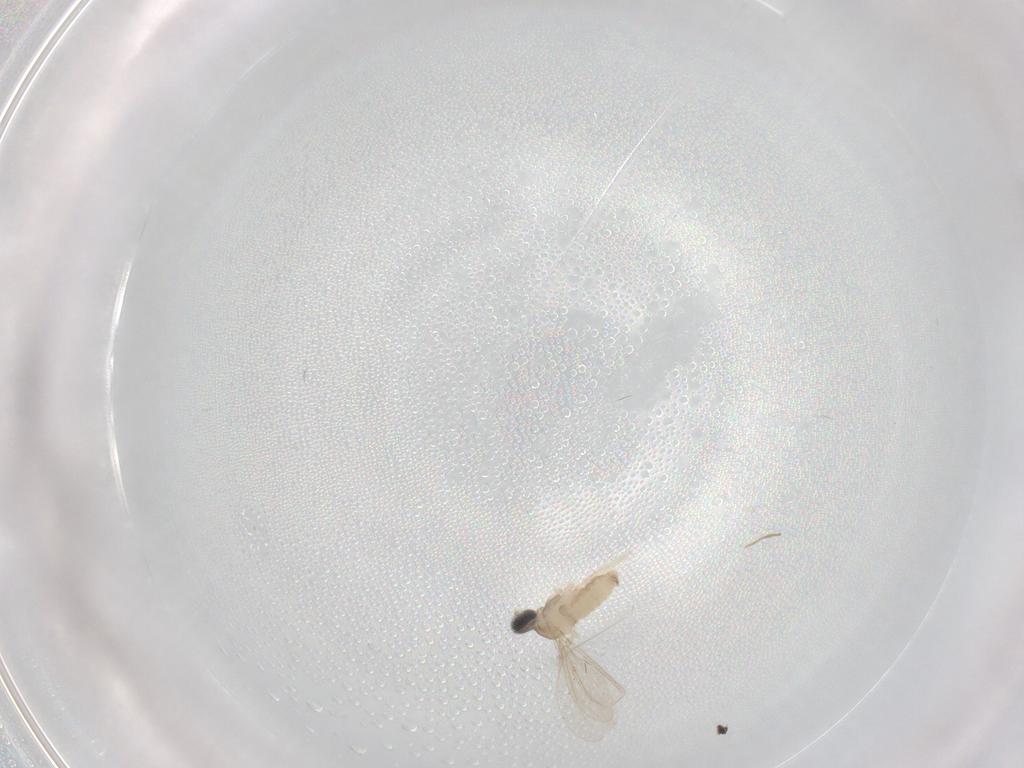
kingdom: Animalia
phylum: Arthropoda
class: Insecta
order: Diptera
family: Cecidomyiidae
